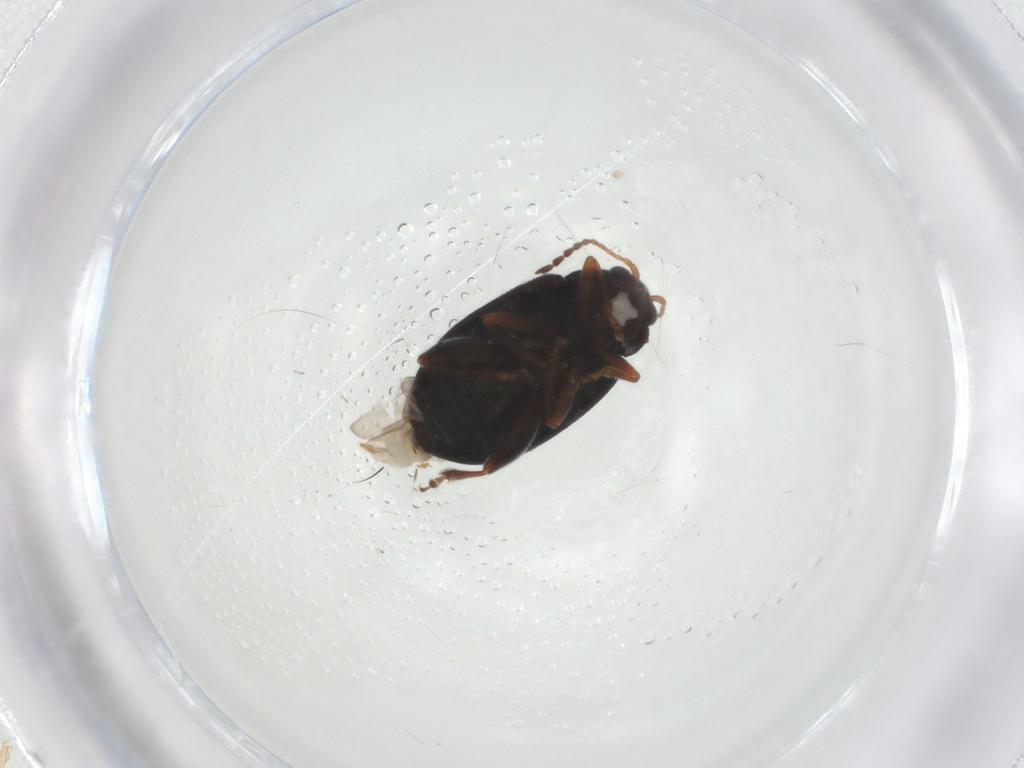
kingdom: Animalia
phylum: Arthropoda
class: Insecta
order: Coleoptera
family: Chrysomelidae
